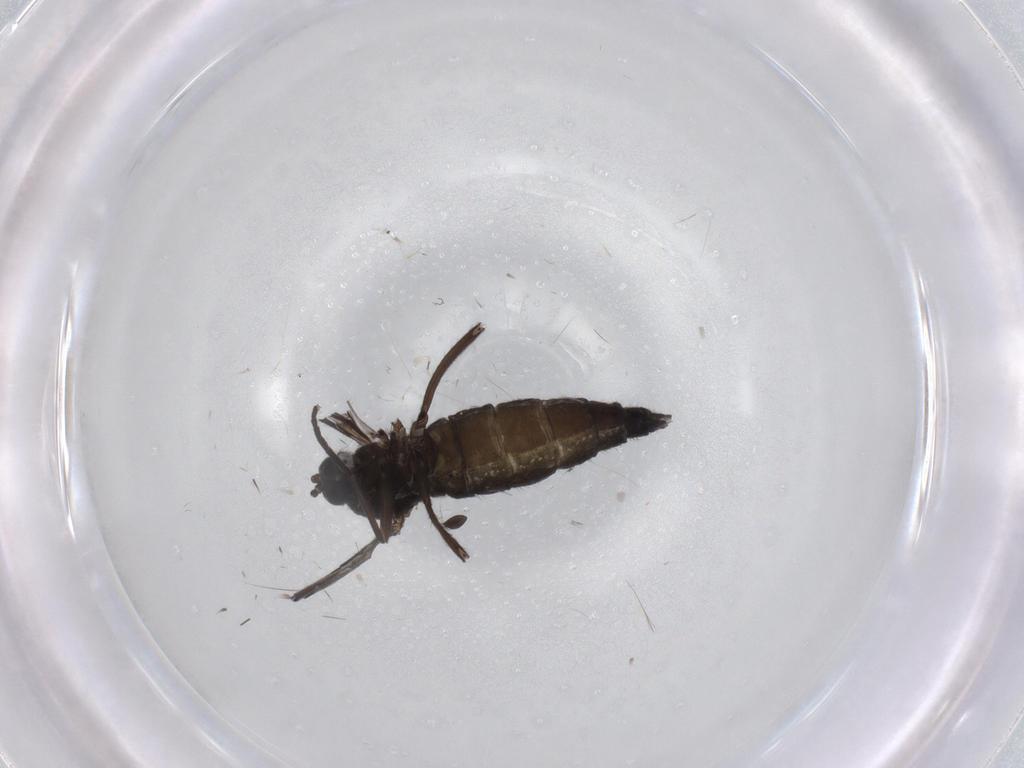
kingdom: Animalia
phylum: Arthropoda
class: Insecta
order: Diptera
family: Sciaridae
